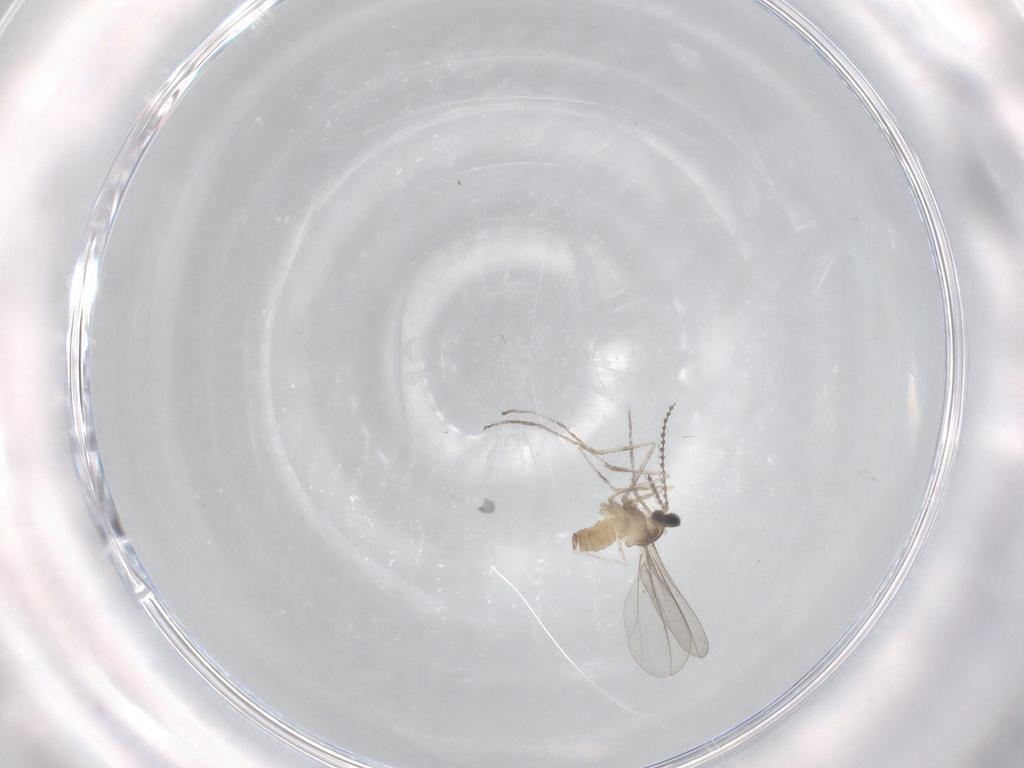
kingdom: Animalia
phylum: Arthropoda
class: Insecta
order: Diptera
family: Cecidomyiidae
